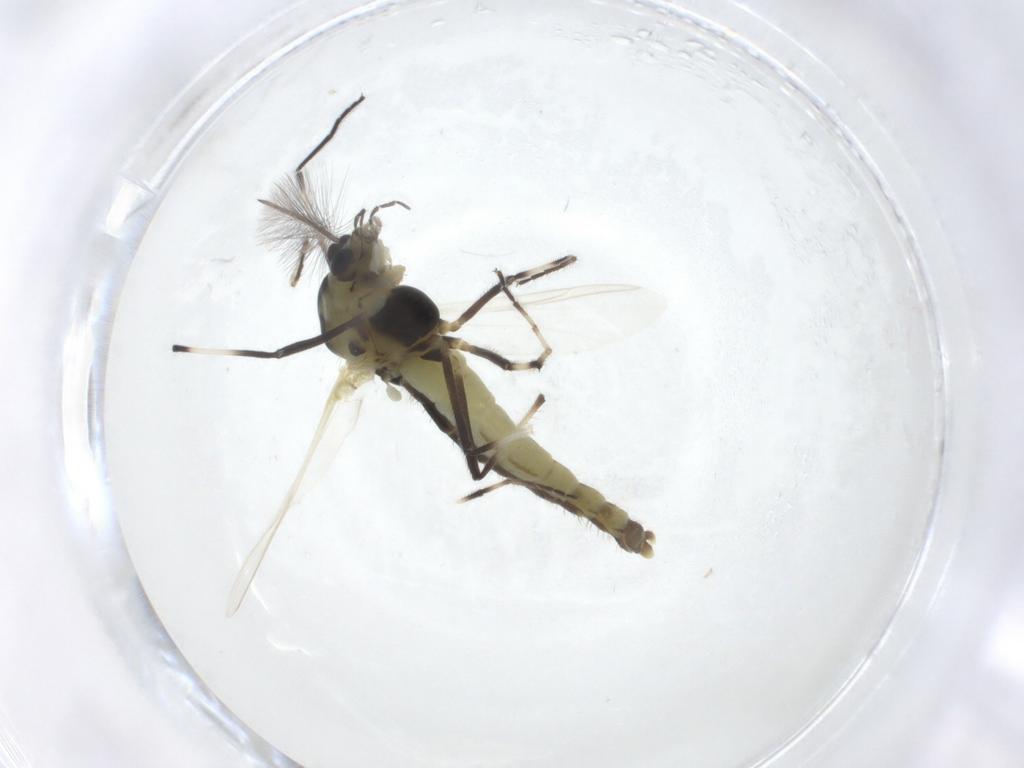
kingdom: Animalia
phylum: Arthropoda
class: Insecta
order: Diptera
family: Chironomidae
